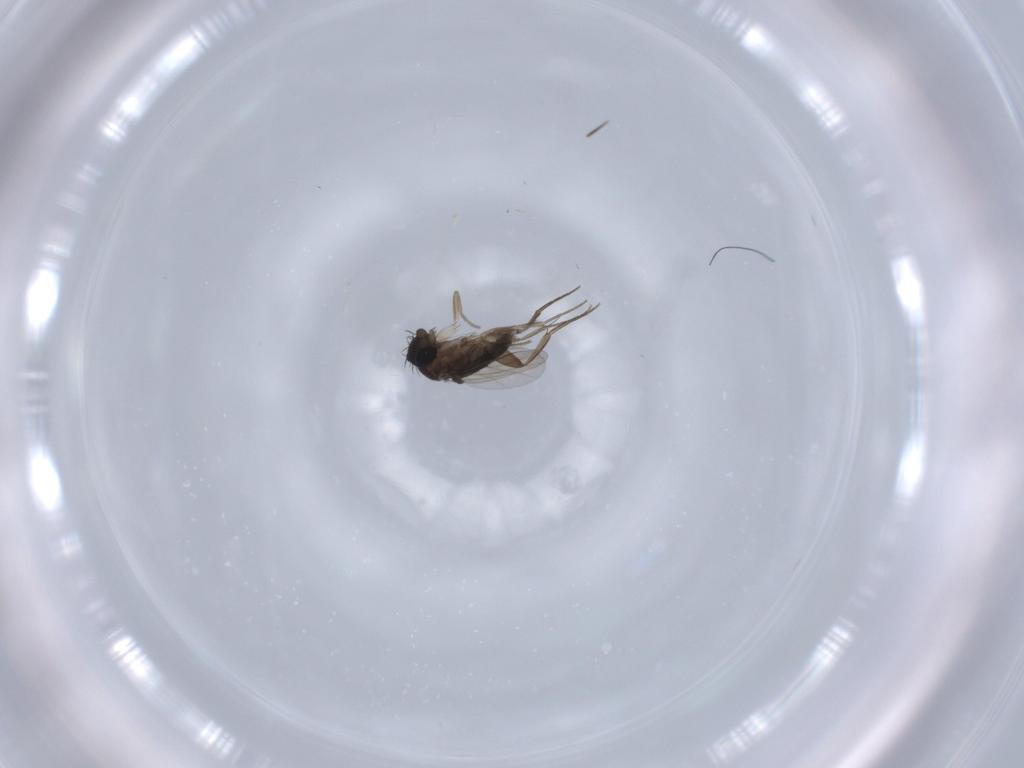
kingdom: Animalia
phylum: Arthropoda
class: Insecta
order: Diptera
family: Phoridae
